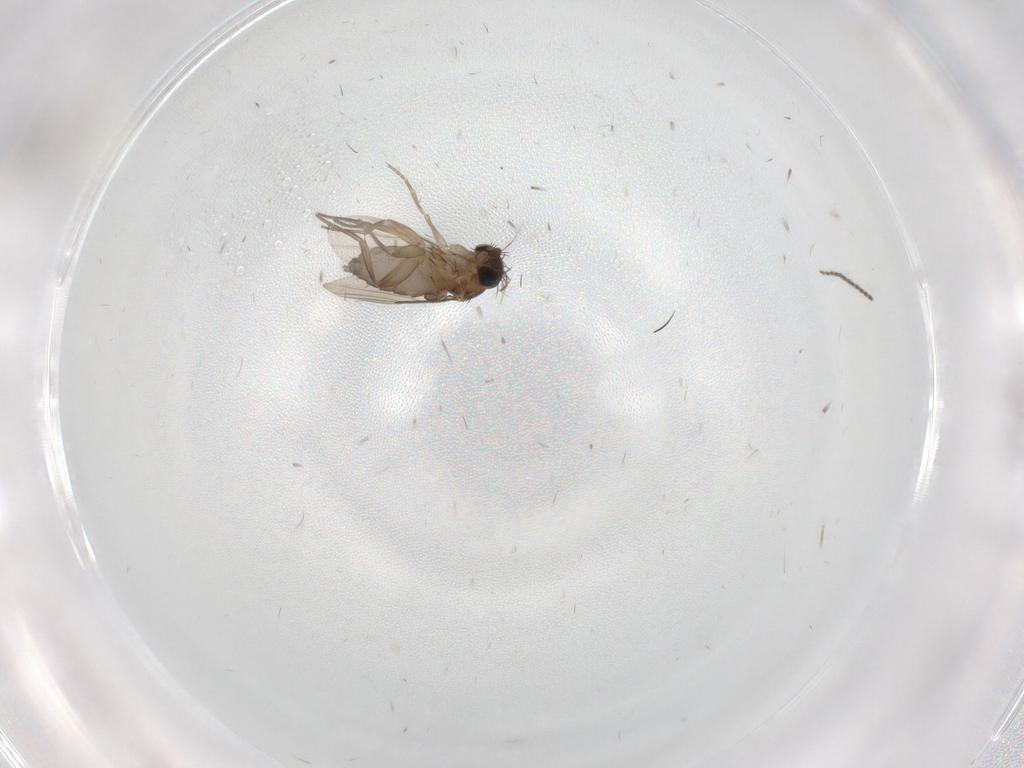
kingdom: Animalia
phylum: Arthropoda
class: Insecta
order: Diptera
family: Phoridae
